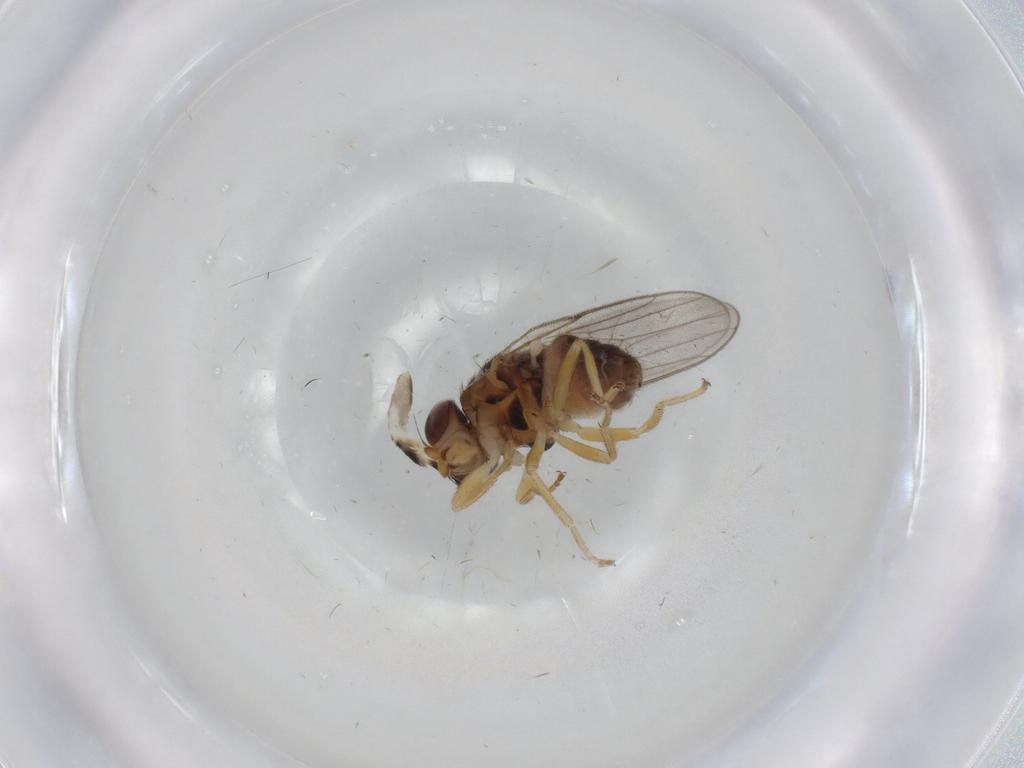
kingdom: Animalia
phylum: Arthropoda
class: Insecta
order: Diptera
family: Chloropidae
